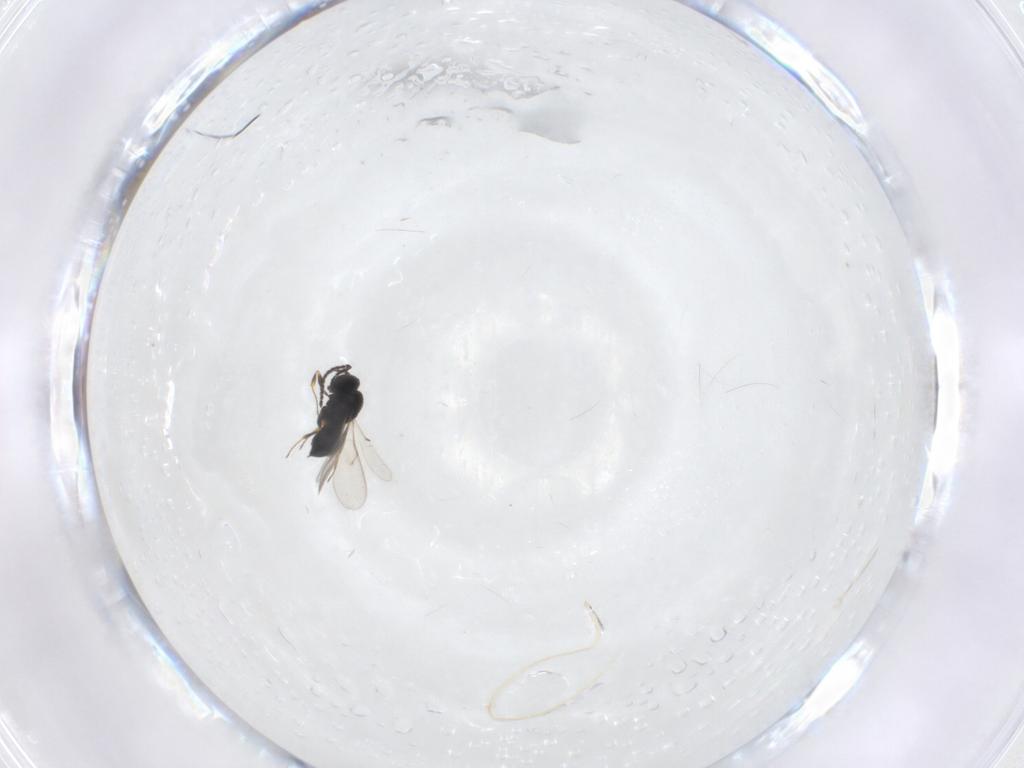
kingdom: Animalia
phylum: Arthropoda
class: Insecta
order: Hymenoptera
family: Scelionidae
